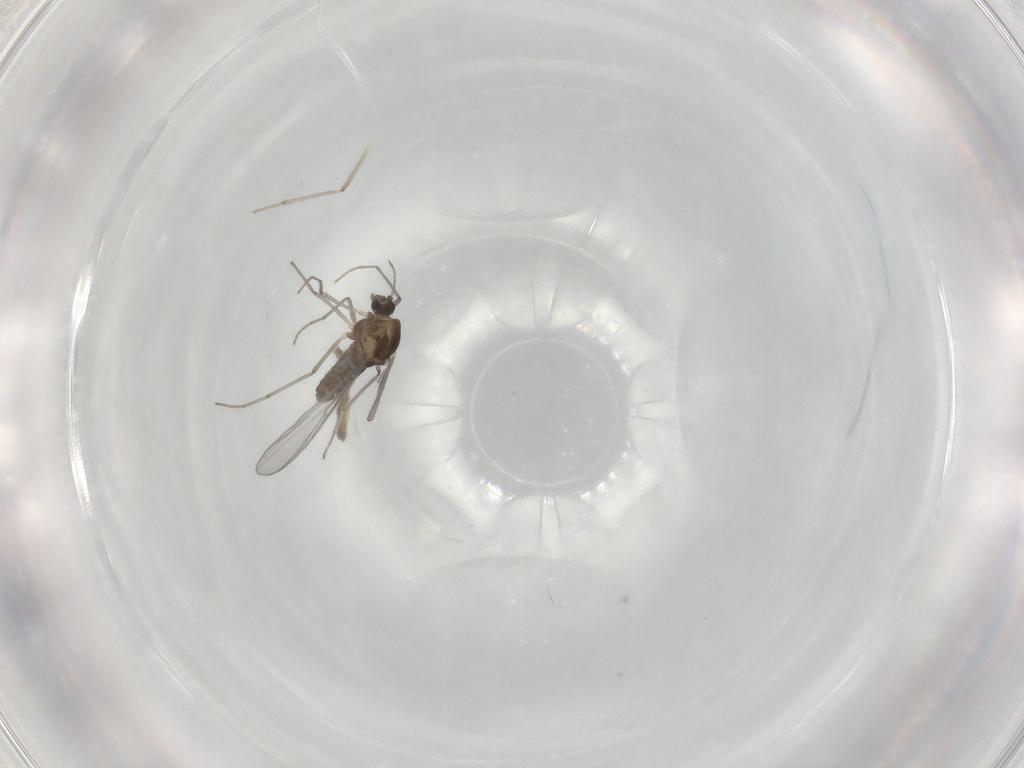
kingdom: Animalia
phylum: Arthropoda
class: Insecta
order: Diptera
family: Chironomidae
